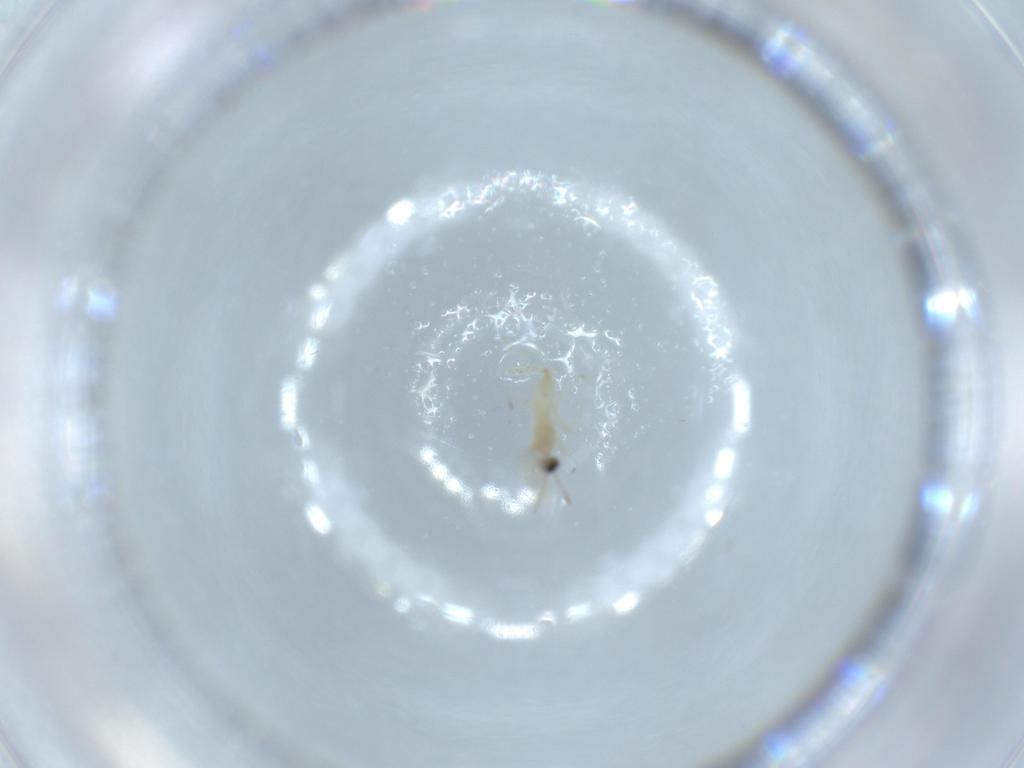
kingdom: Animalia
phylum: Arthropoda
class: Insecta
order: Diptera
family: Cecidomyiidae
